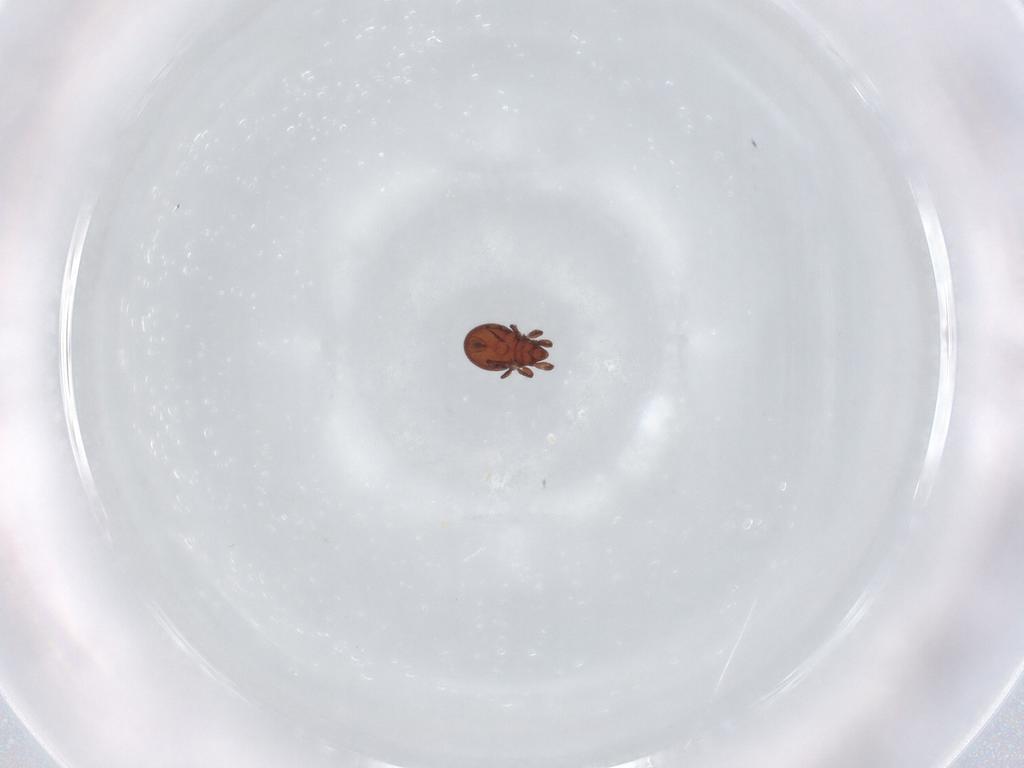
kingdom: Animalia
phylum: Arthropoda
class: Arachnida
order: Sarcoptiformes
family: Eremaeidae
